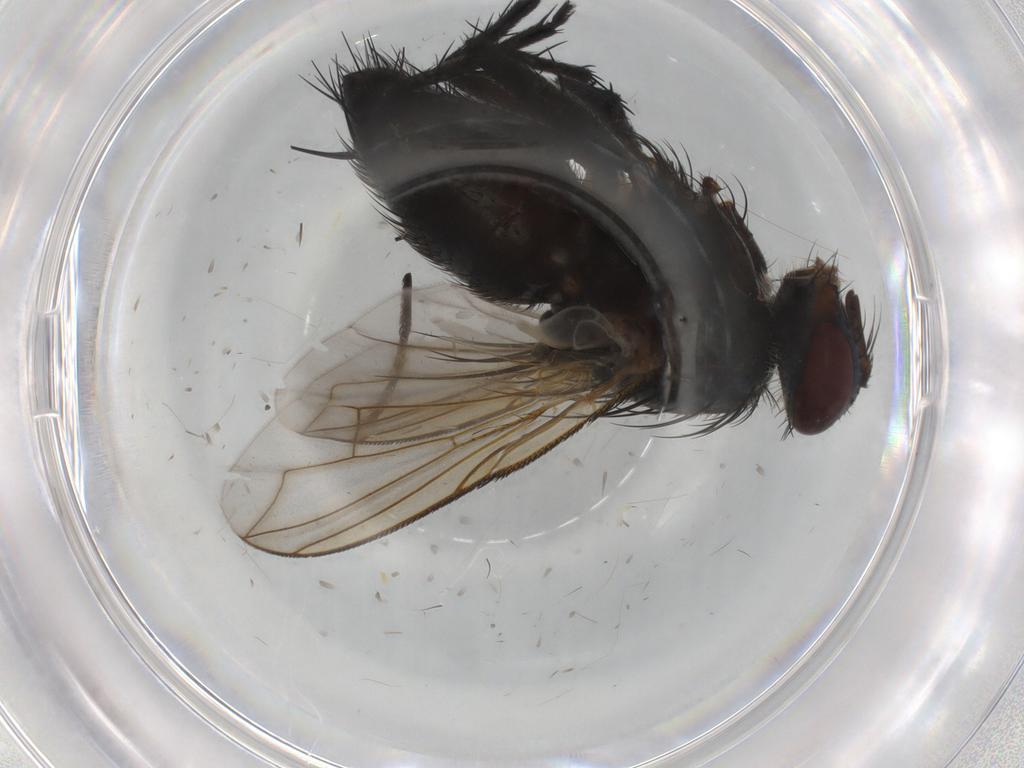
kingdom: Animalia
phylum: Arthropoda
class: Insecta
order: Diptera
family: Tachinidae
